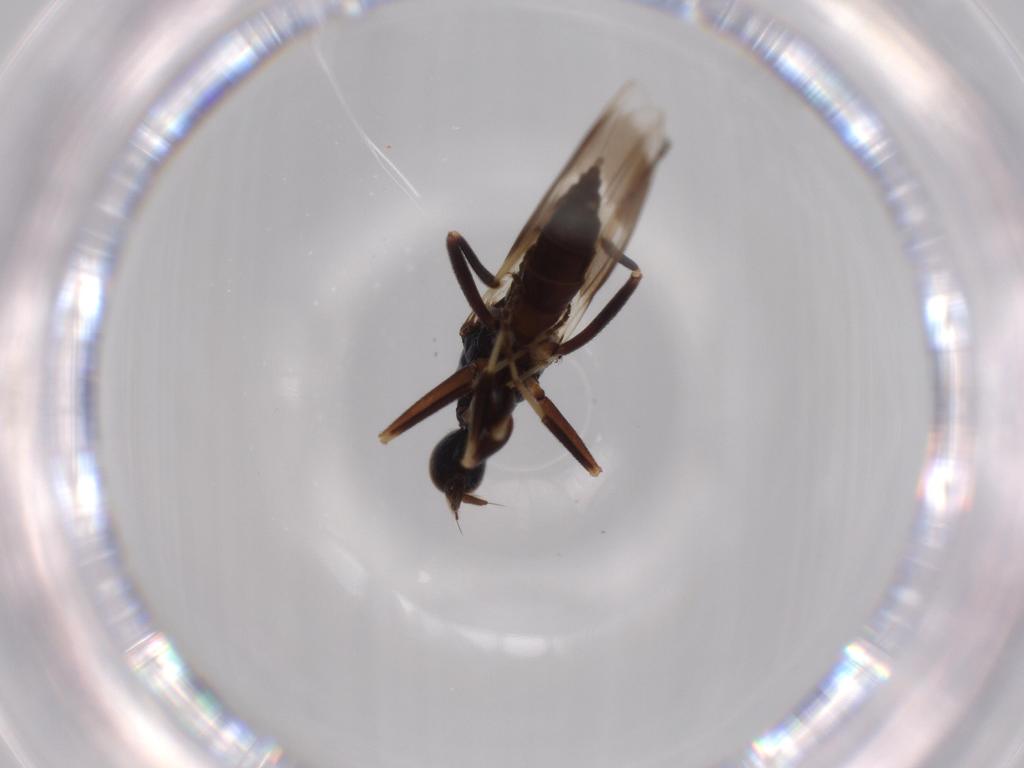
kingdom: Animalia
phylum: Arthropoda
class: Insecta
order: Diptera
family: Hybotidae
